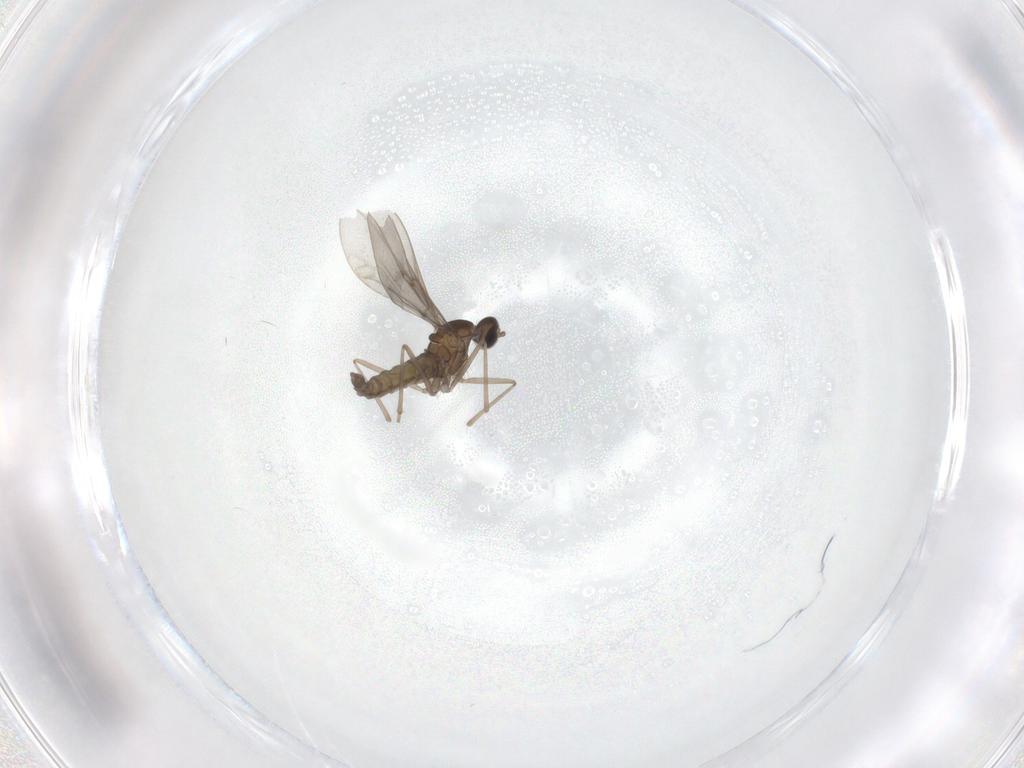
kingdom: Animalia
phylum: Arthropoda
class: Insecta
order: Diptera
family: Cecidomyiidae
